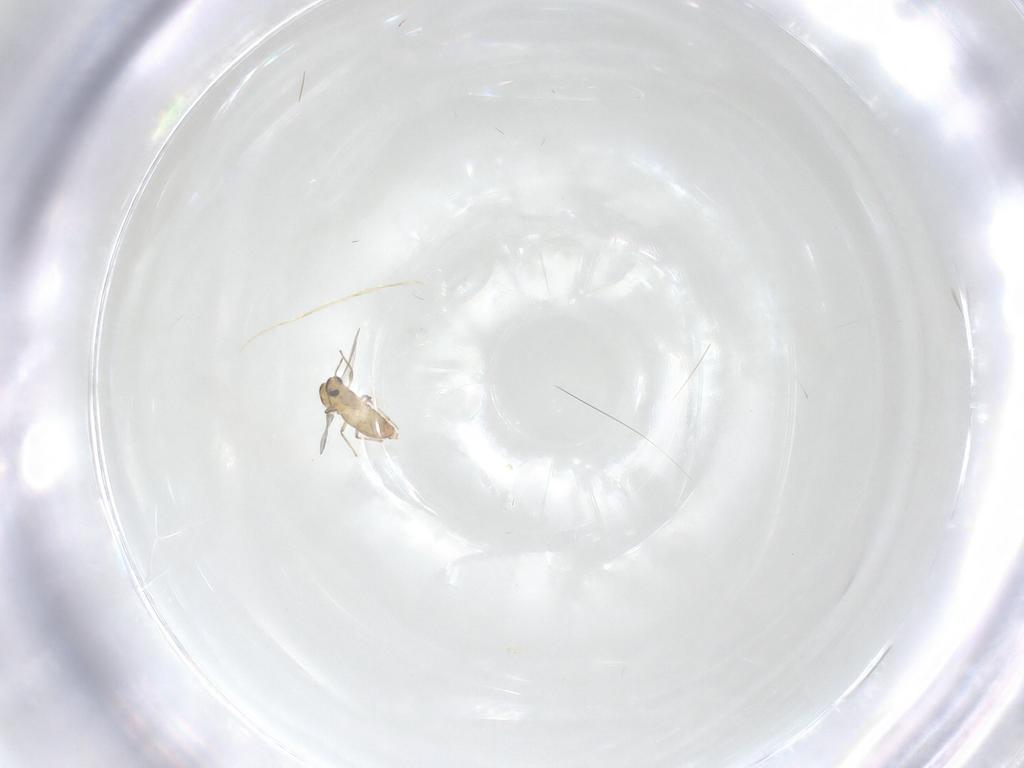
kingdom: Animalia
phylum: Arthropoda
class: Insecta
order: Diptera
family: Chironomidae
